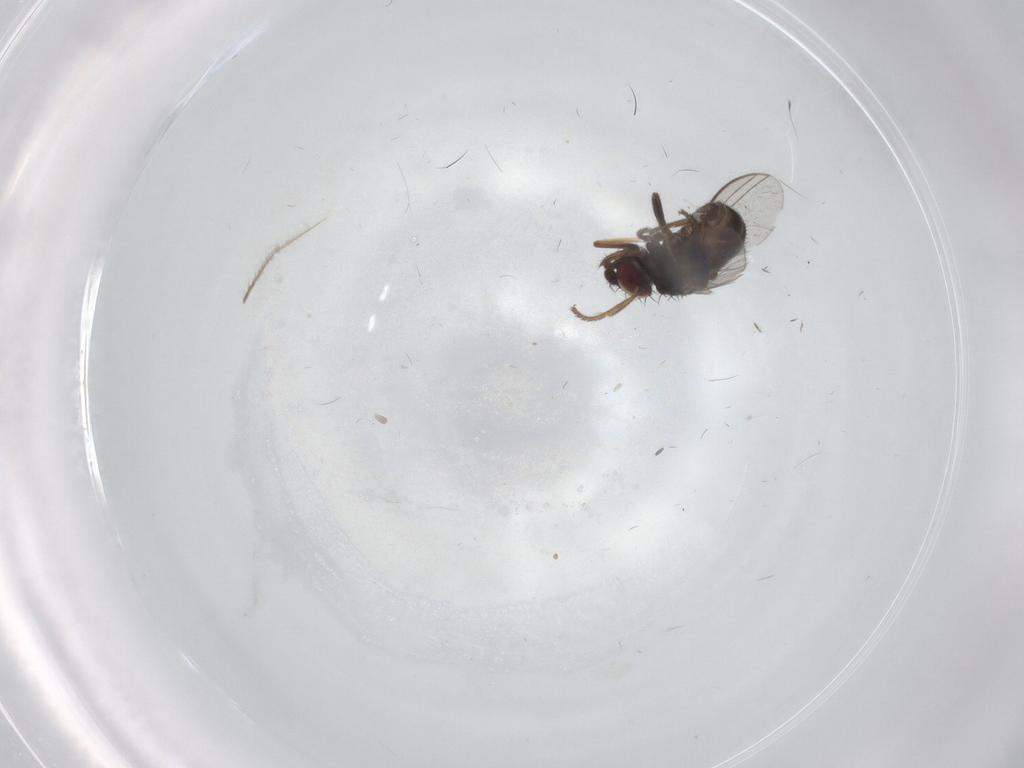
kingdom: Animalia
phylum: Arthropoda
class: Insecta
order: Diptera
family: Milichiidae
